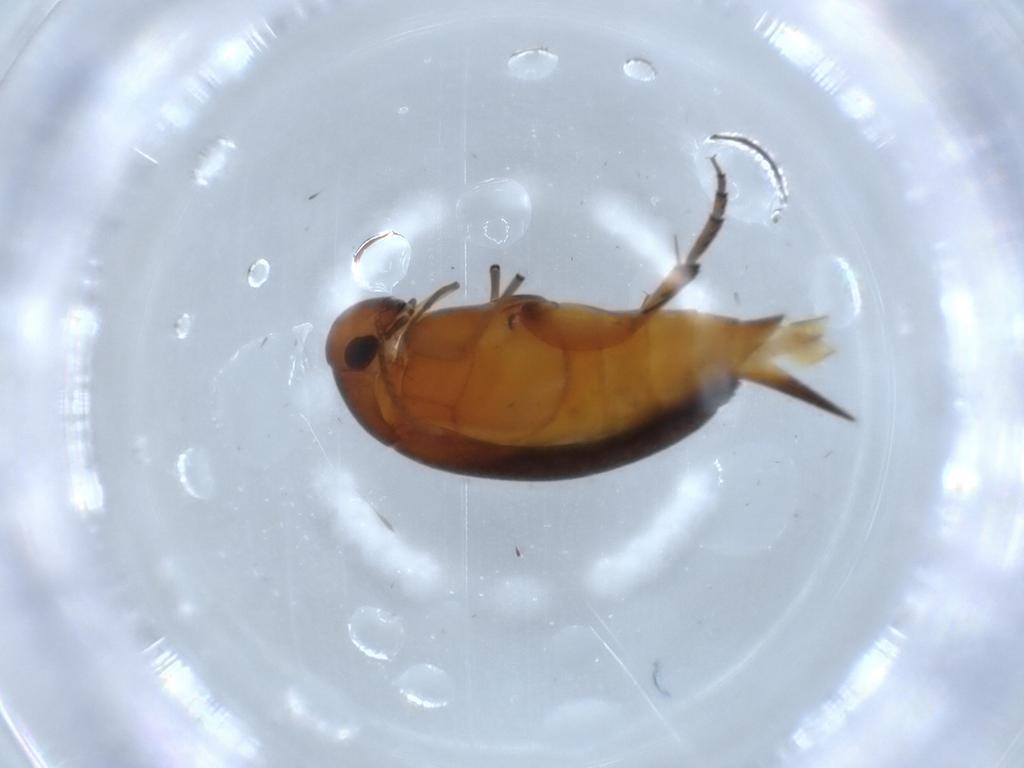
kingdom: Animalia
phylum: Arthropoda
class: Insecta
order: Coleoptera
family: Mordellidae
